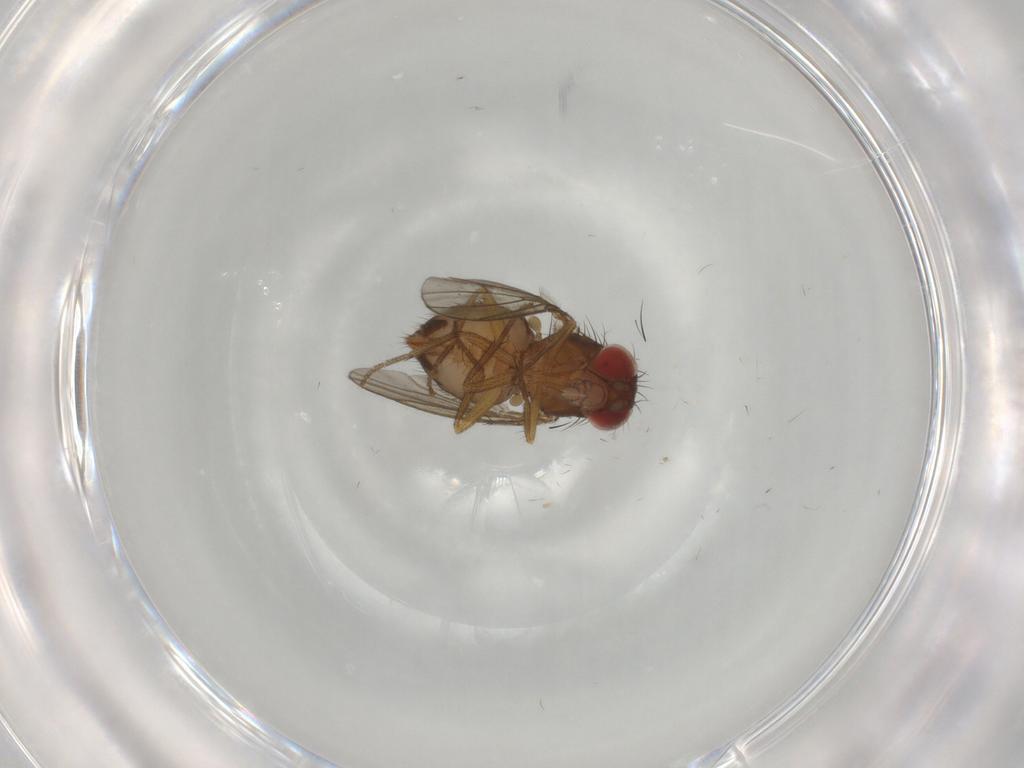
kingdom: Animalia
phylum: Arthropoda
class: Insecta
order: Diptera
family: Drosophilidae
